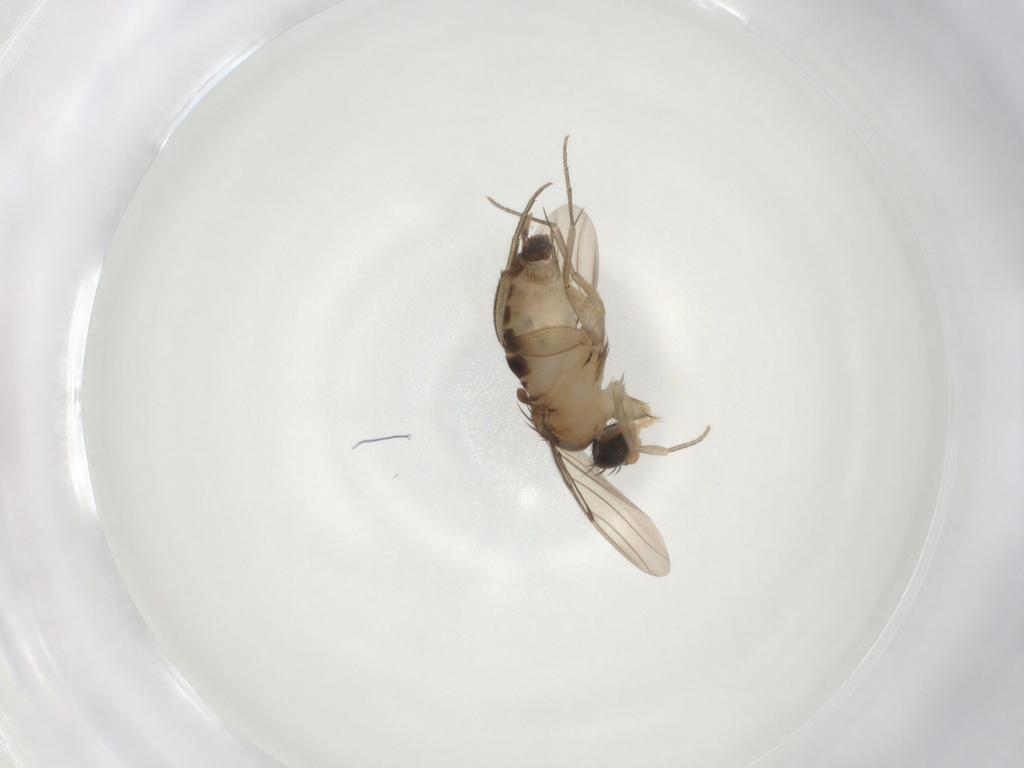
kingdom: Animalia
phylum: Arthropoda
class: Insecta
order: Diptera
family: Phoridae
